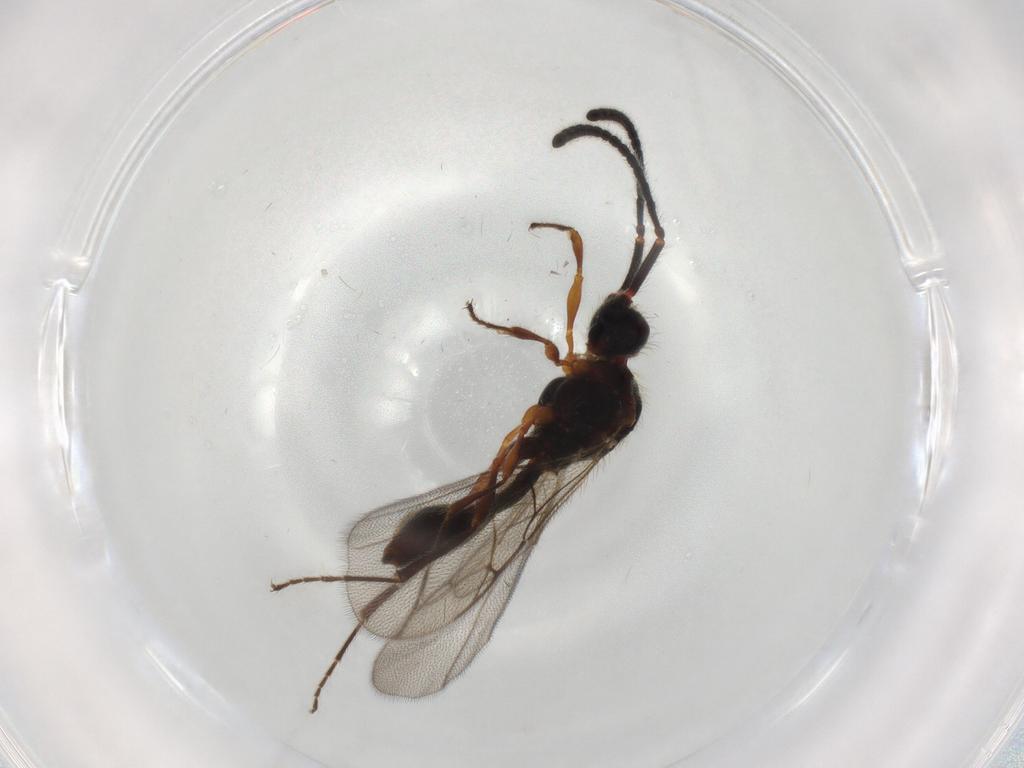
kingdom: Animalia
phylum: Arthropoda
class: Insecta
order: Hymenoptera
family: Diapriidae
